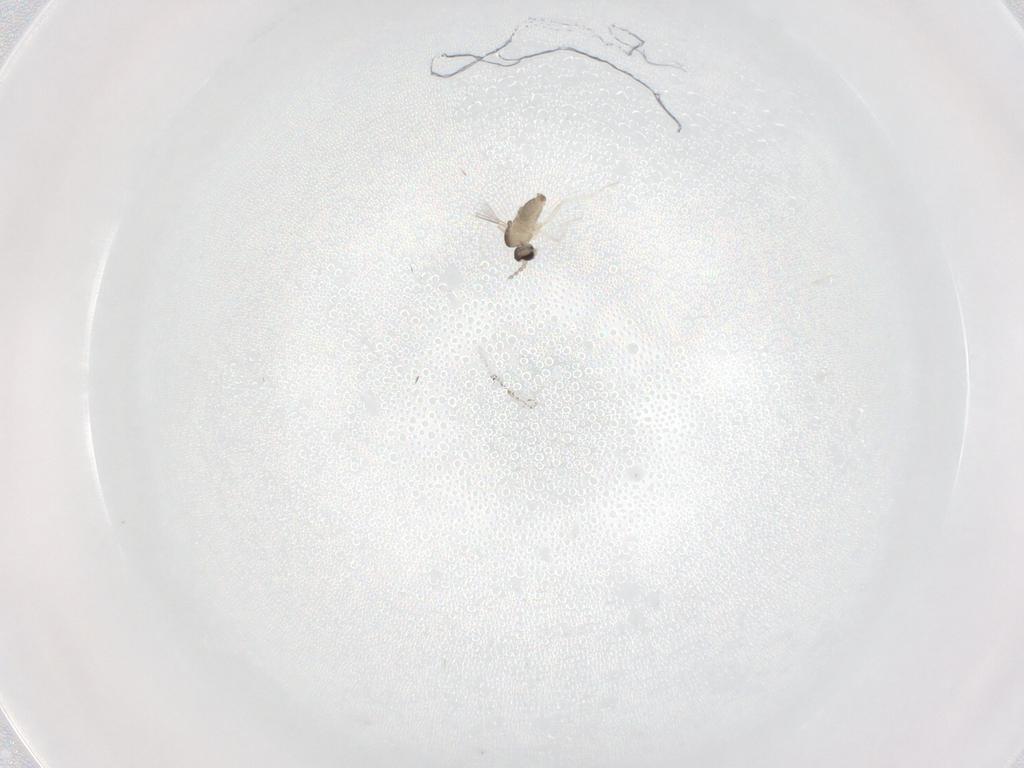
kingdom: Animalia
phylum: Arthropoda
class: Insecta
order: Diptera
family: Cecidomyiidae
